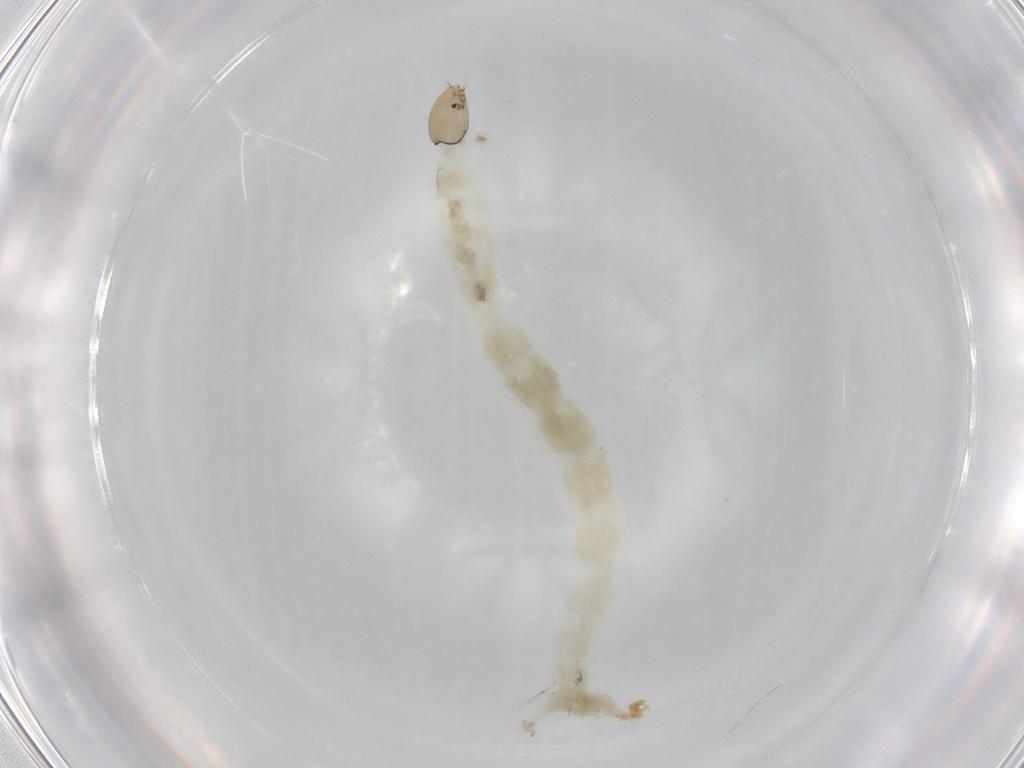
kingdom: Animalia
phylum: Arthropoda
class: Insecta
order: Diptera
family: Chironomidae
